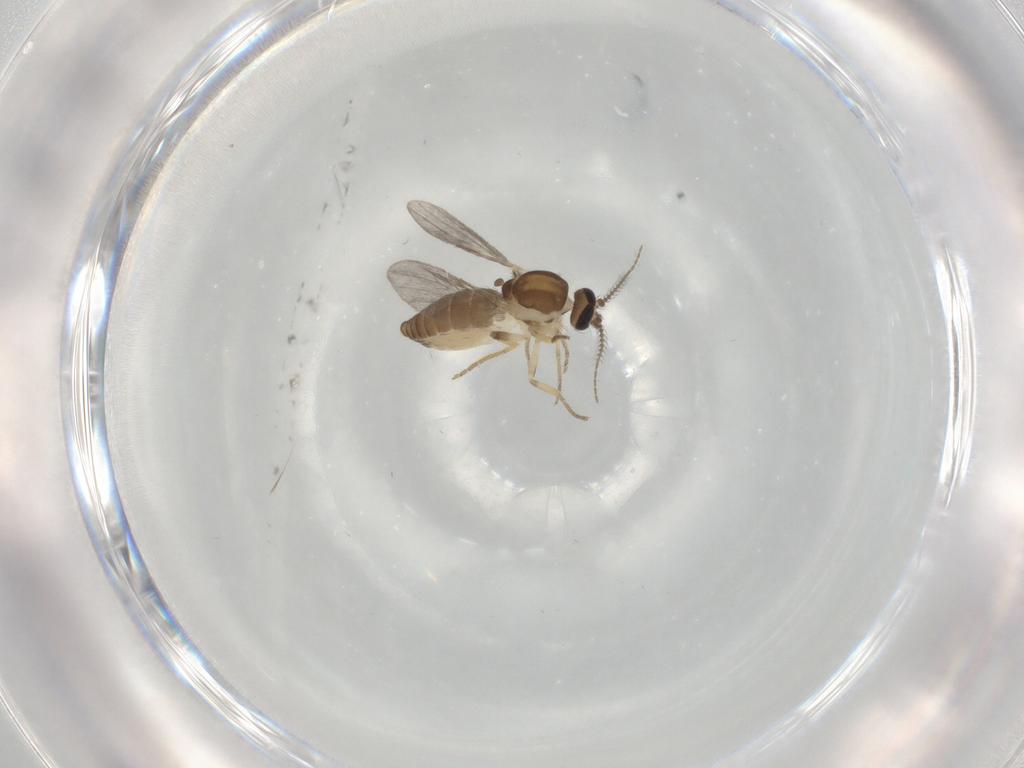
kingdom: Animalia
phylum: Arthropoda
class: Insecta
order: Diptera
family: Ceratopogonidae
